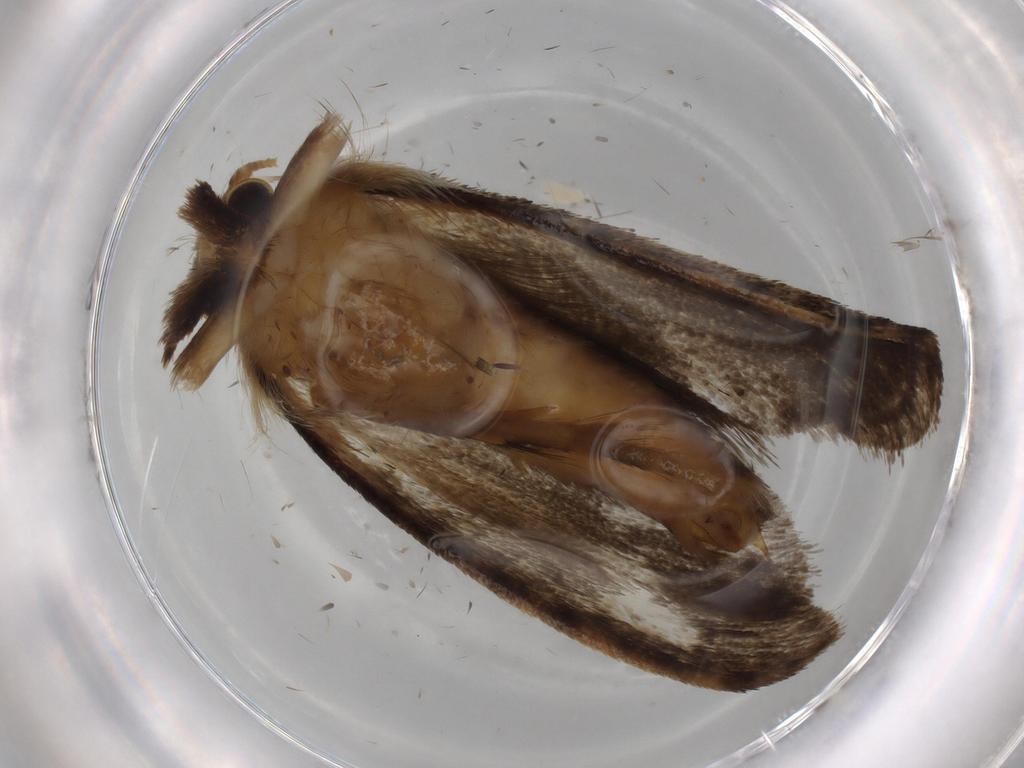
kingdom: Animalia
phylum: Arthropoda
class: Insecta
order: Lepidoptera
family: Tineidae
